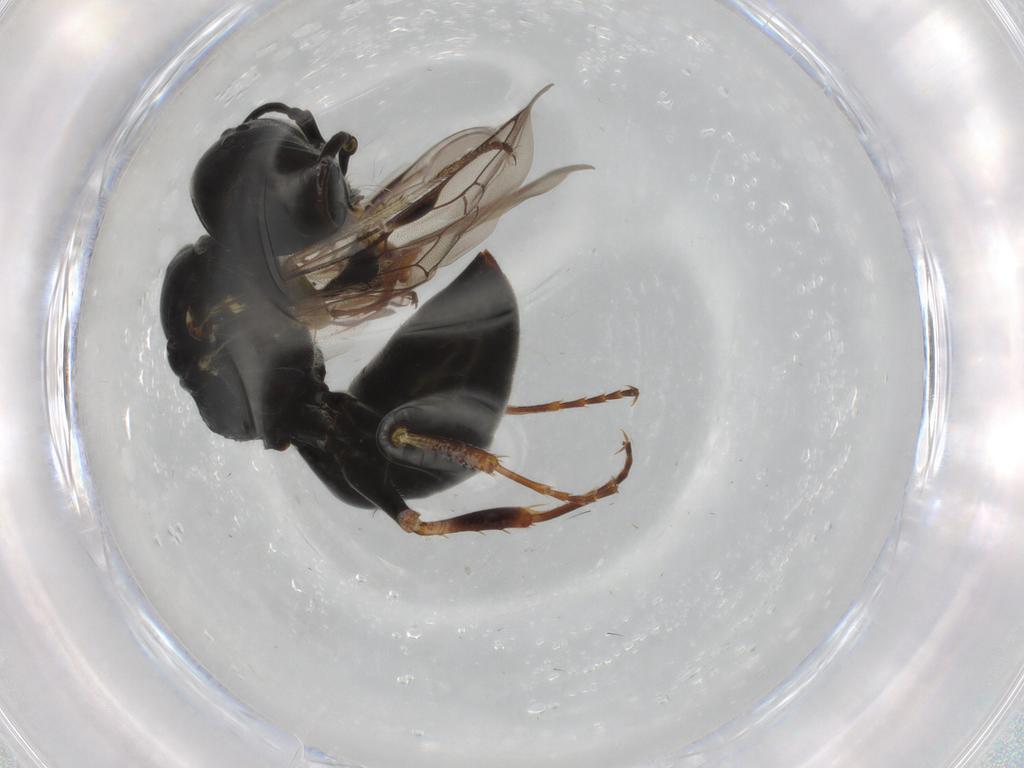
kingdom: Animalia
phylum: Arthropoda
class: Insecta
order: Hymenoptera
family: Crabronidae
